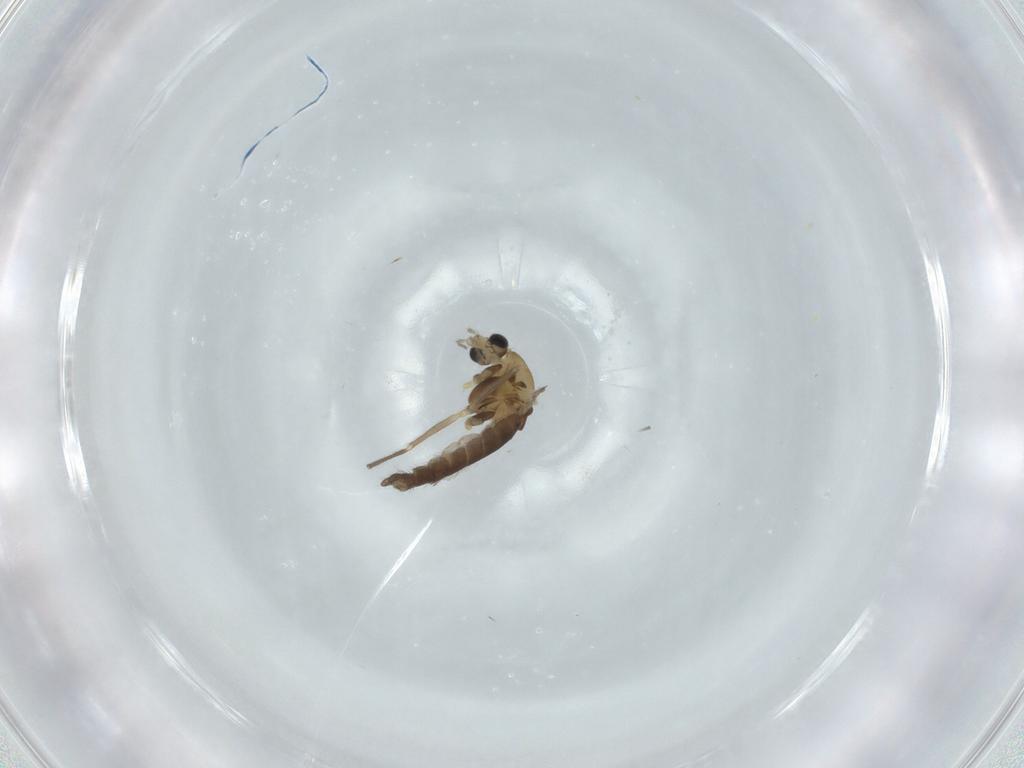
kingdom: Animalia
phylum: Arthropoda
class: Insecta
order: Diptera
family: Chironomidae
